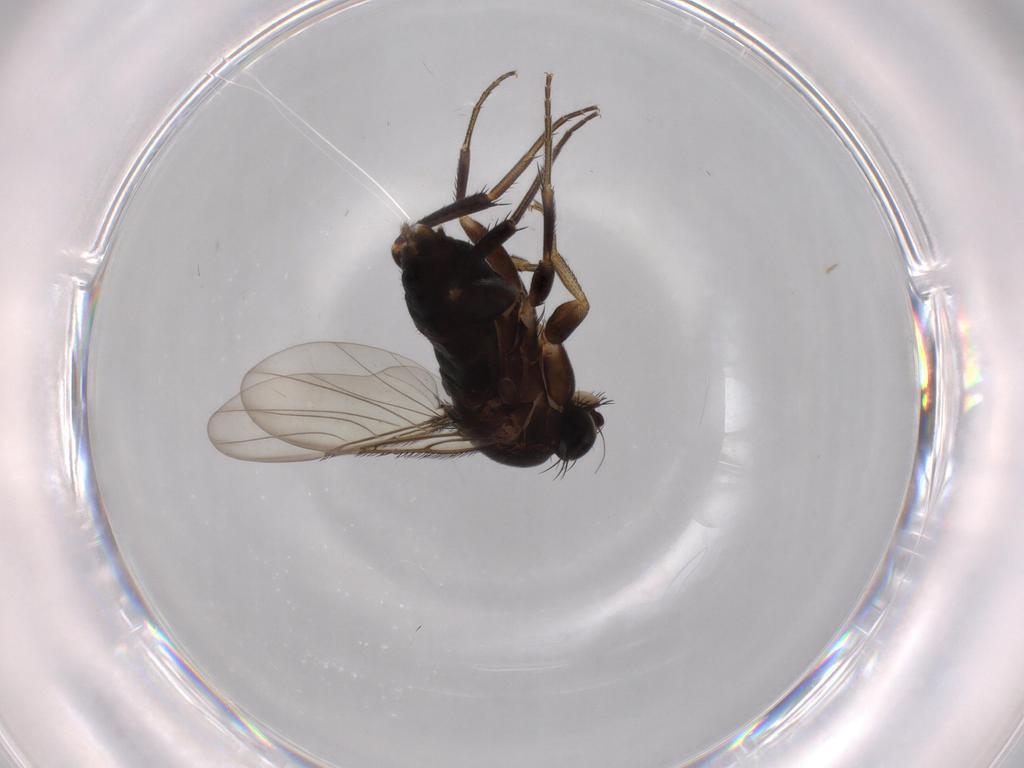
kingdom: Animalia
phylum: Arthropoda
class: Insecta
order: Diptera
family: Phoridae
